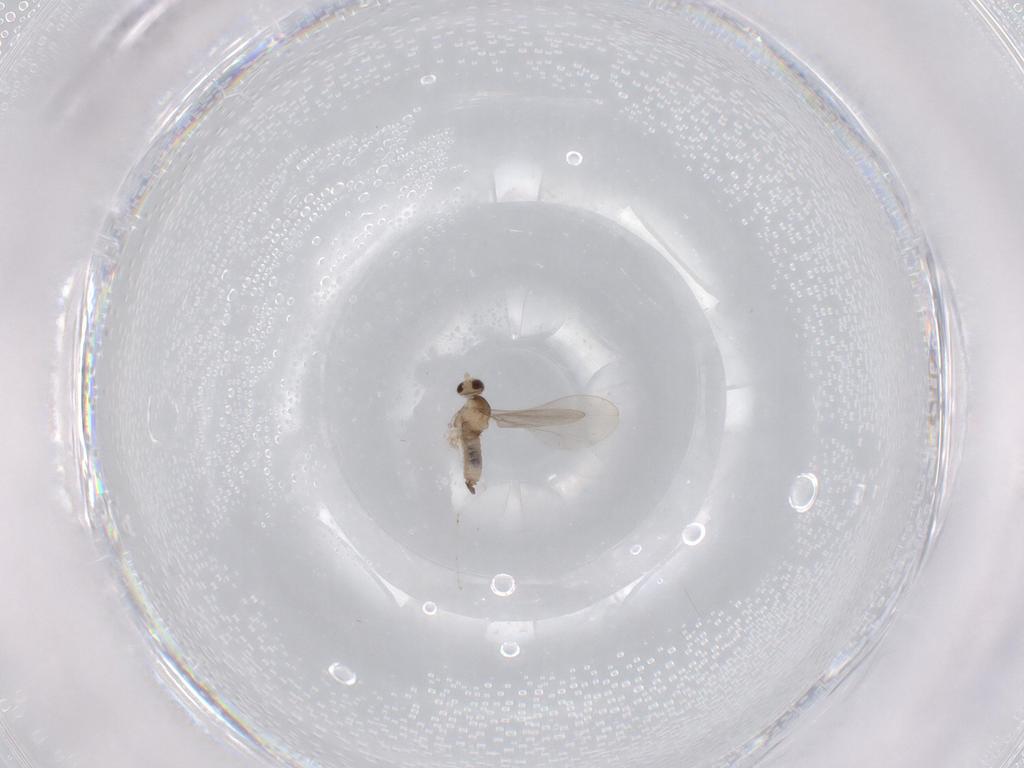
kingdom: Animalia
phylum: Arthropoda
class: Insecta
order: Diptera
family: Cecidomyiidae
